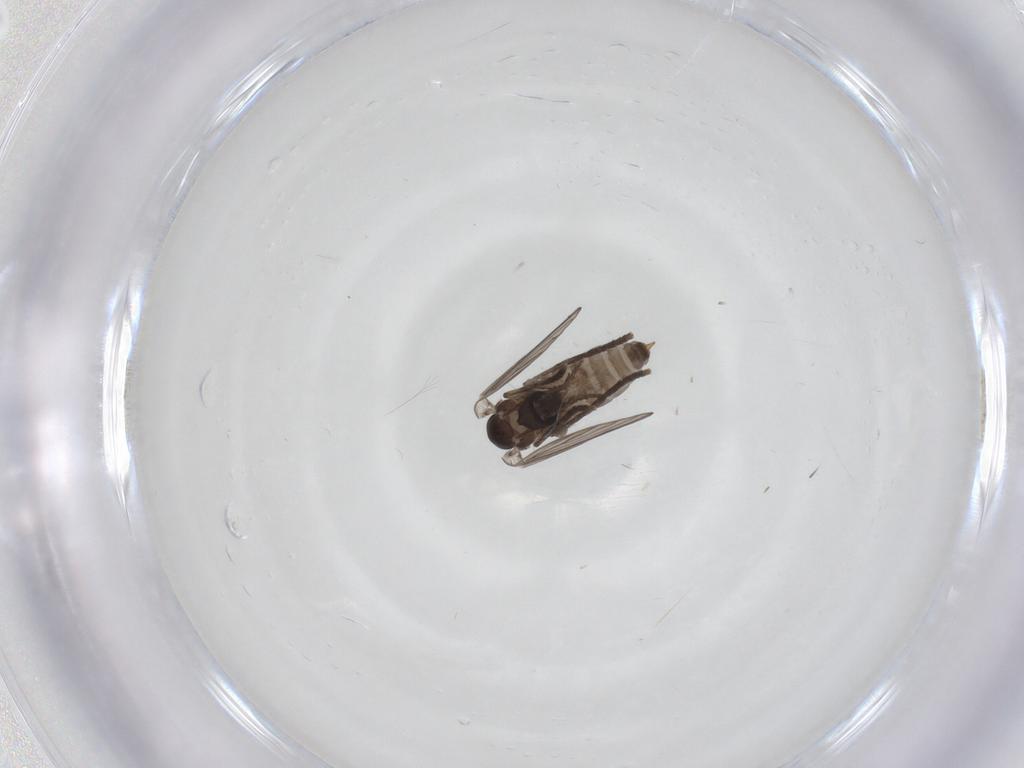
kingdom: Animalia
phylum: Arthropoda
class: Insecta
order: Diptera
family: Psychodidae
